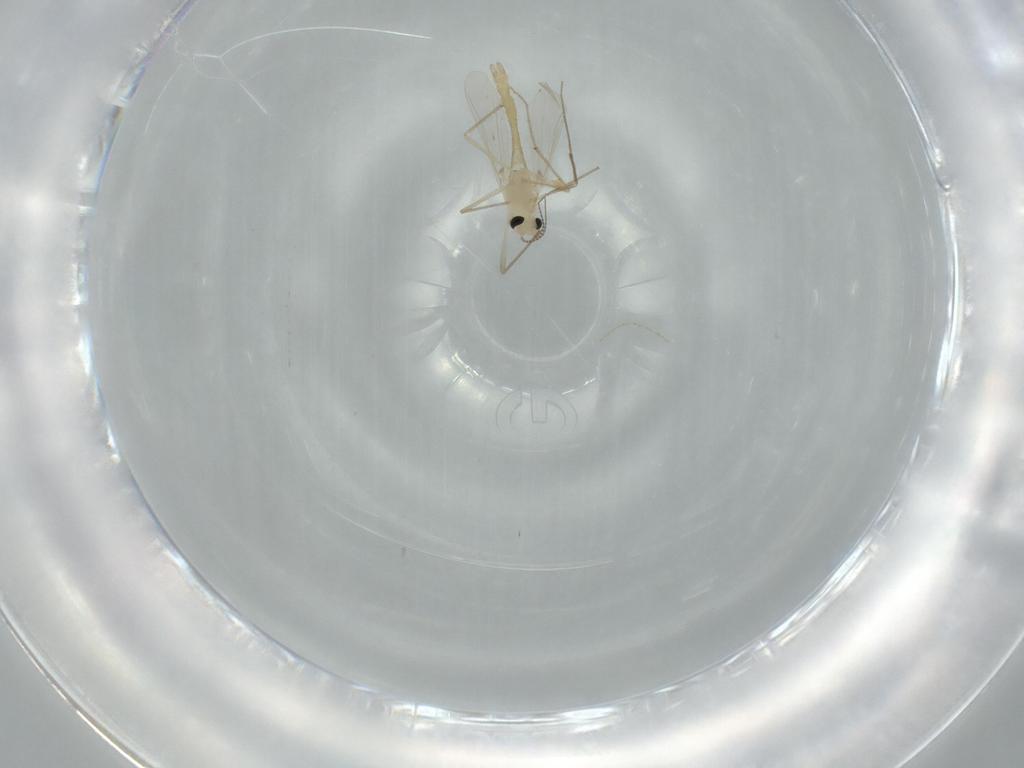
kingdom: Animalia
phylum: Arthropoda
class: Insecta
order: Diptera
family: Chironomidae
